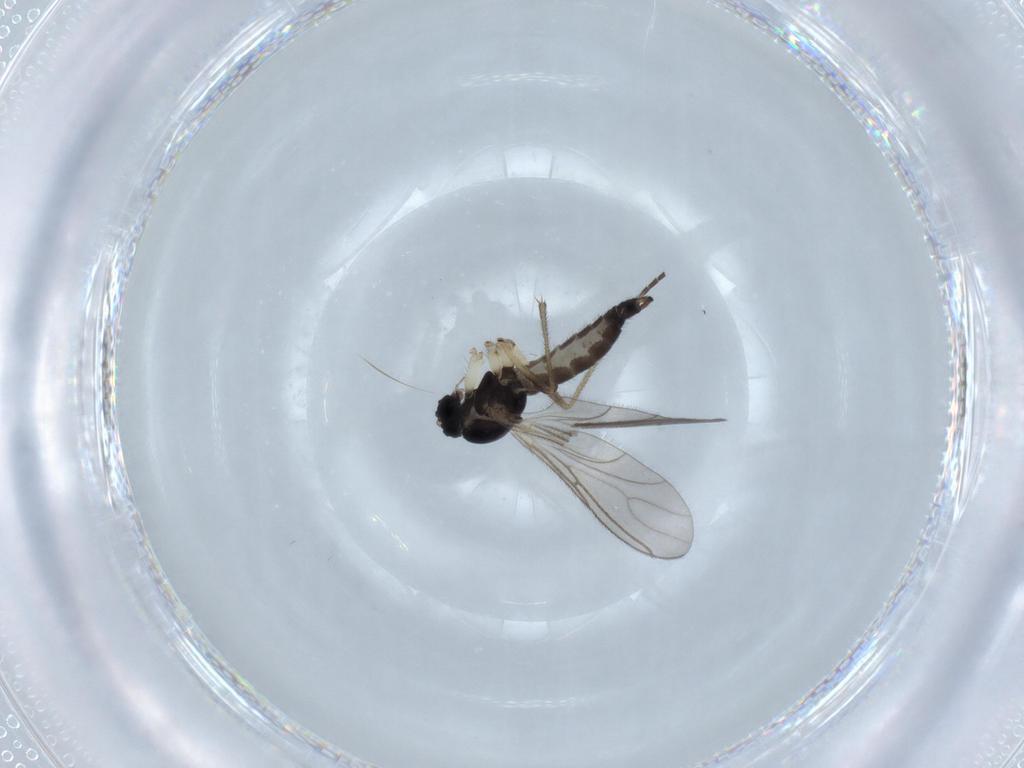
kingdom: Animalia
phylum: Arthropoda
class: Insecta
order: Diptera
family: Sciaridae
